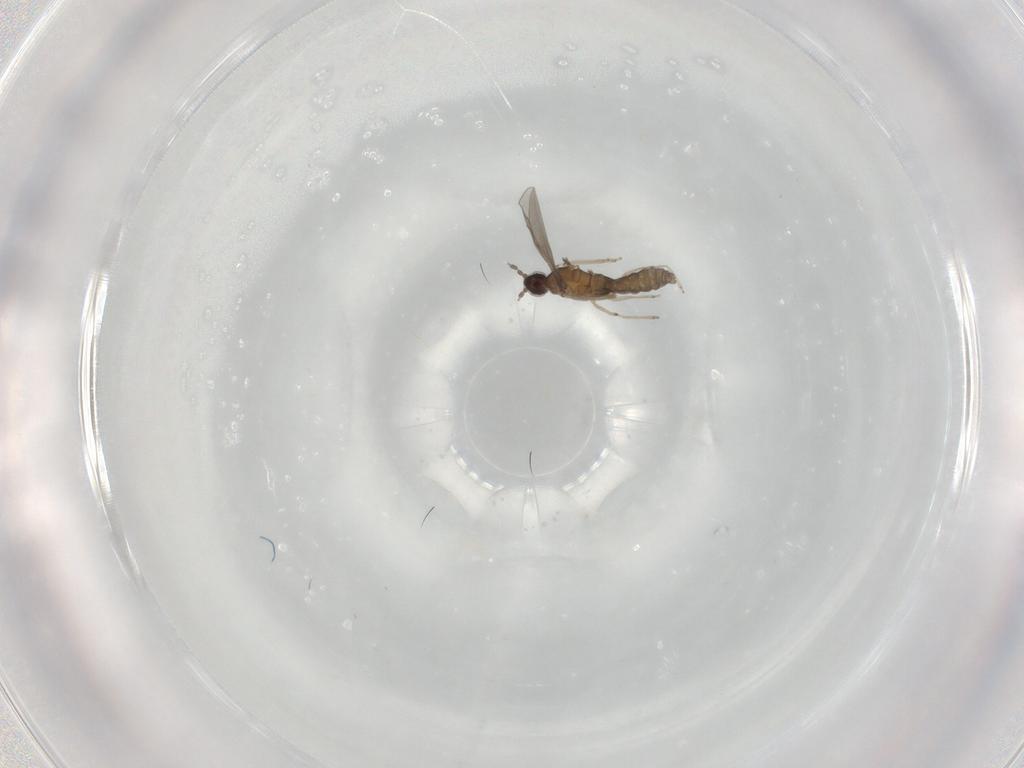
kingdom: Animalia
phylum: Arthropoda
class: Insecta
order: Diptera
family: Cecidomyiidae
